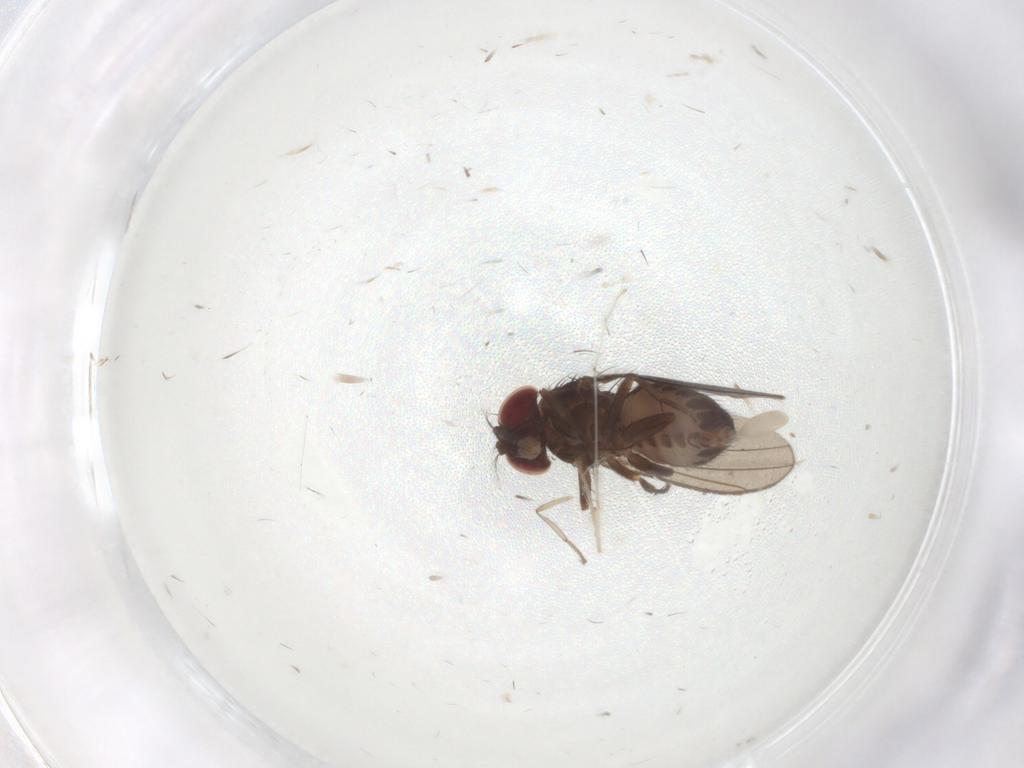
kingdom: Animalia
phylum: Arthropoda
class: Insecta
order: Diptera
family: Drosophilidae
